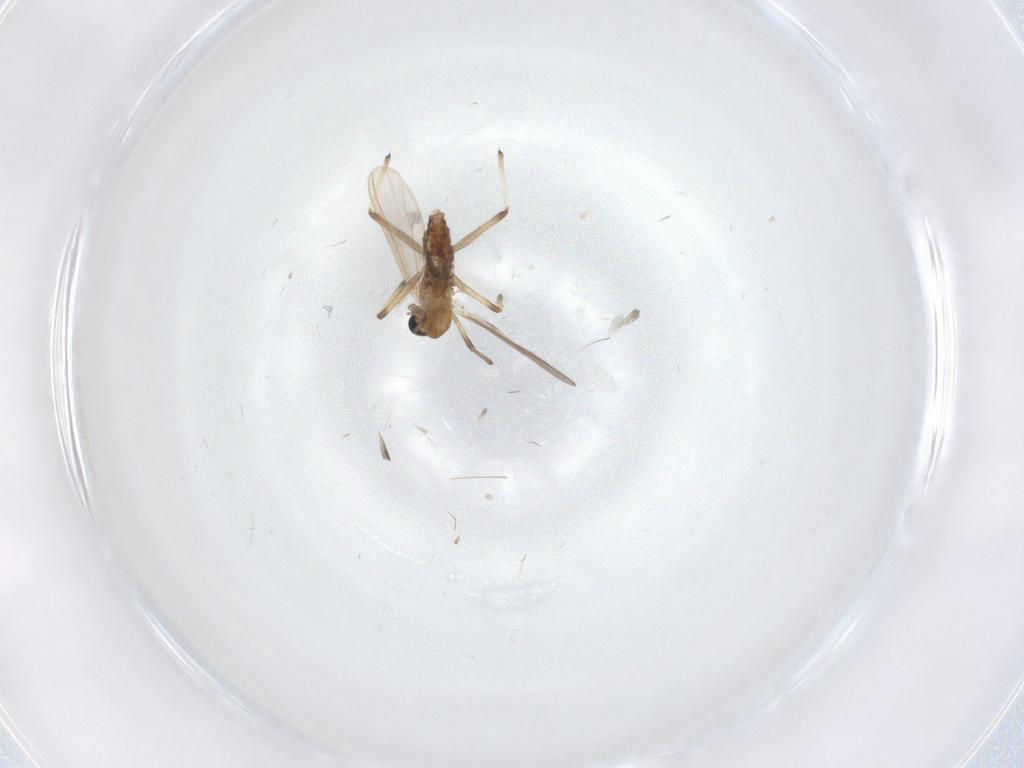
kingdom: Animalia
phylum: Arthropoda
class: Insecta
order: Diptera
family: Chironomidae
